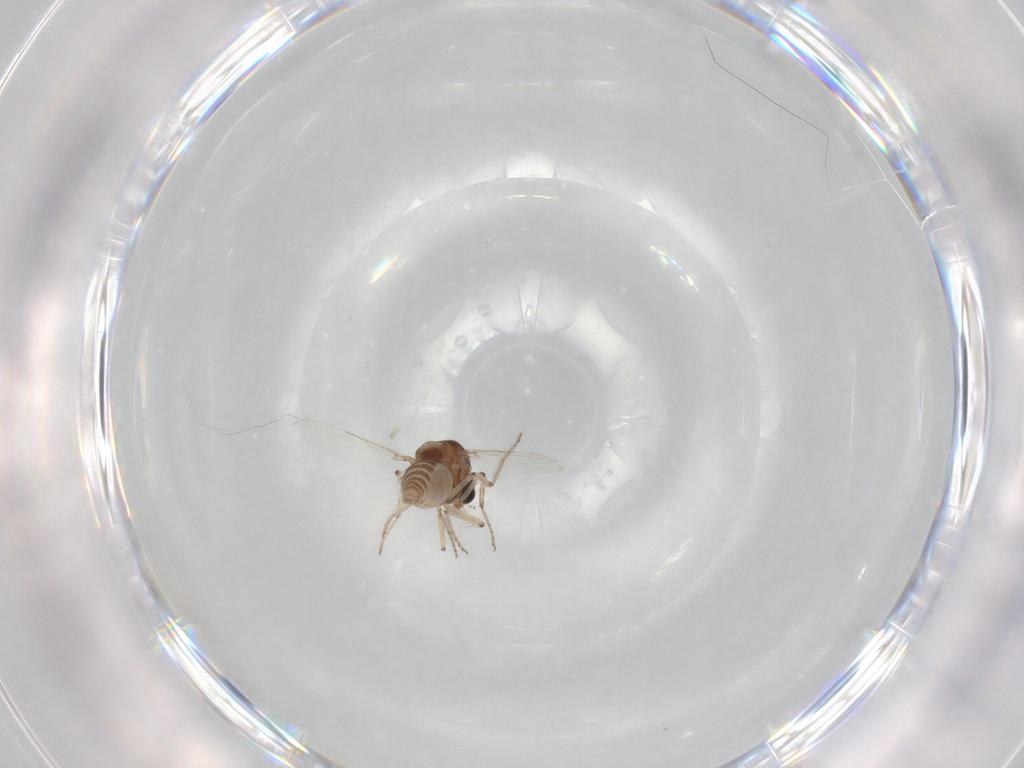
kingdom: Animalia
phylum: Arthropoda
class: Insecta
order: Diptera
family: Ceratopogonidae
